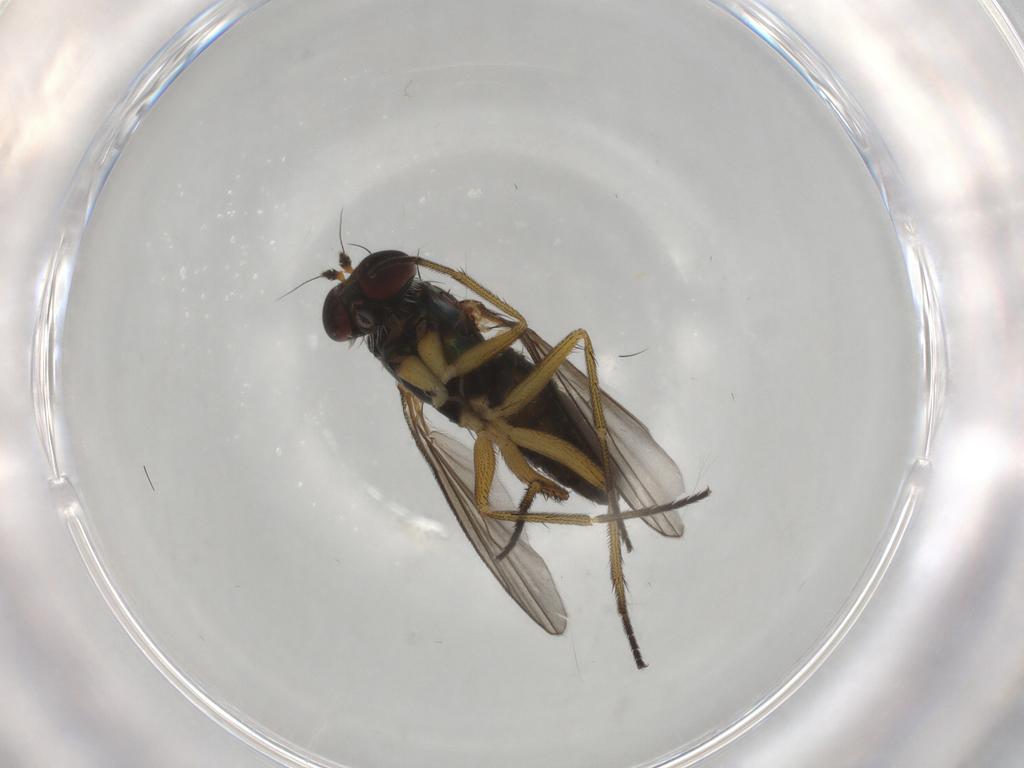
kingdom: Animalia
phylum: Arthropoda
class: Insecta
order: Diptera
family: Dolichopodidae
